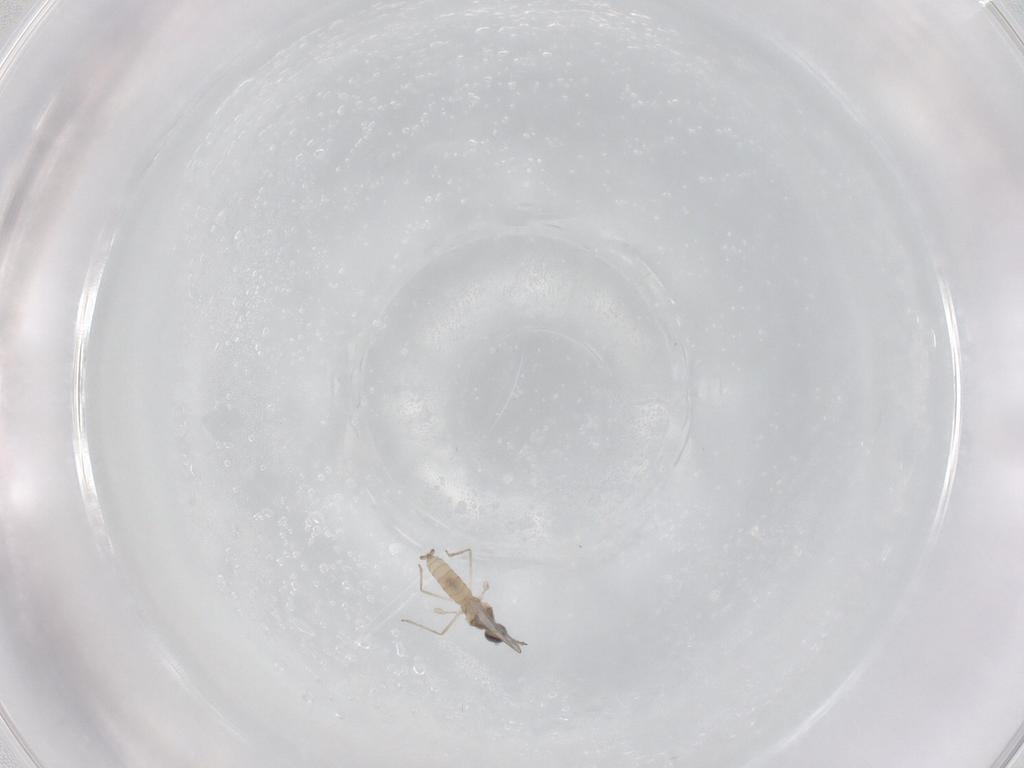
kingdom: Animalia
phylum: Arthropoda
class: Insecta
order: Diptera
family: Cecidomyiidae
